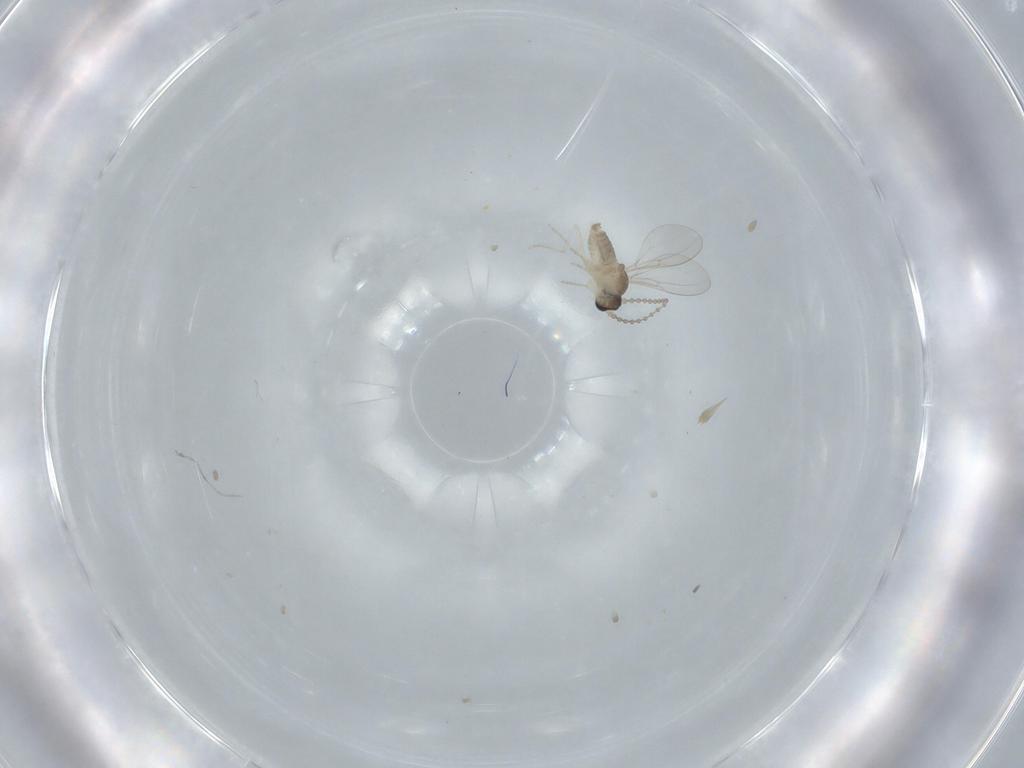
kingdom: Animalia
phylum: Arthropoda
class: Insecta
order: Diptera
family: Cecidomyiidae
